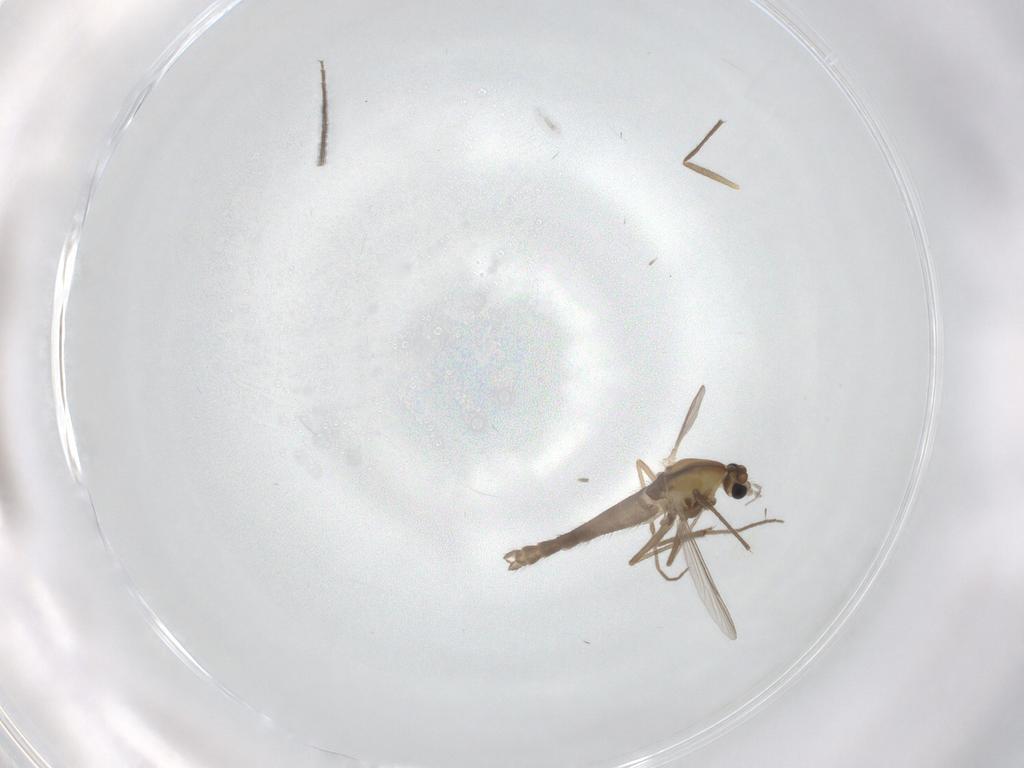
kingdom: Animalia
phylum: Arthropoda
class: Insecta
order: Diptera
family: Chironomidae
